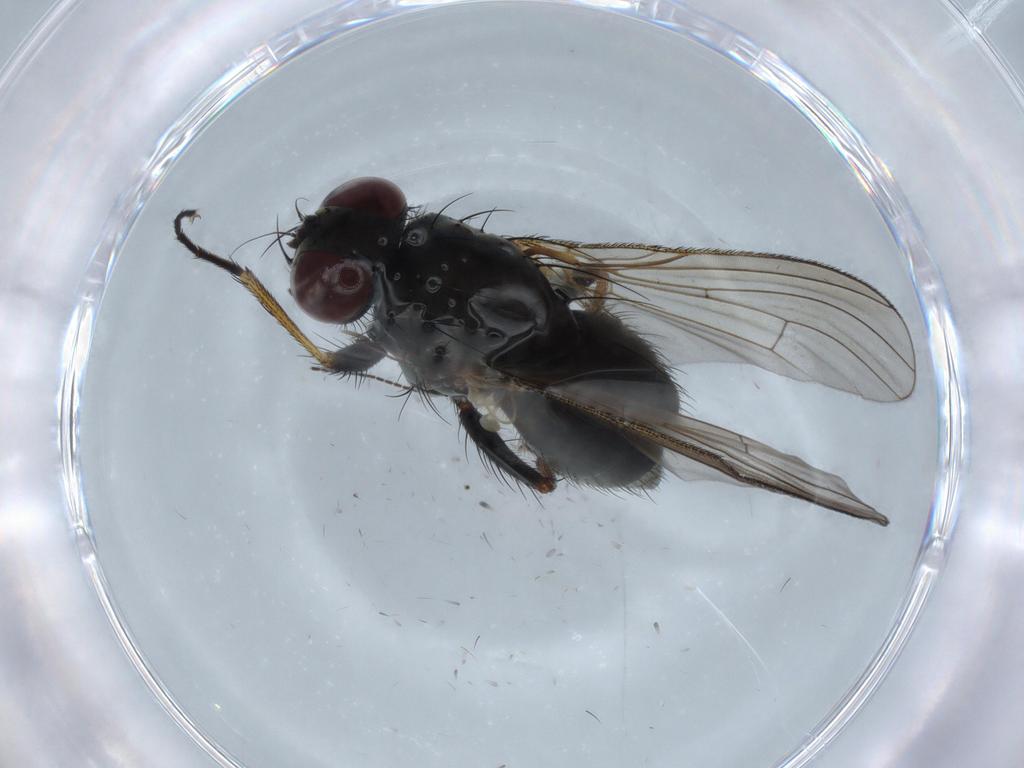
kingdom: Animalia
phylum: Arthropoda
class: Insecta
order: Diptera
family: Muscidae
